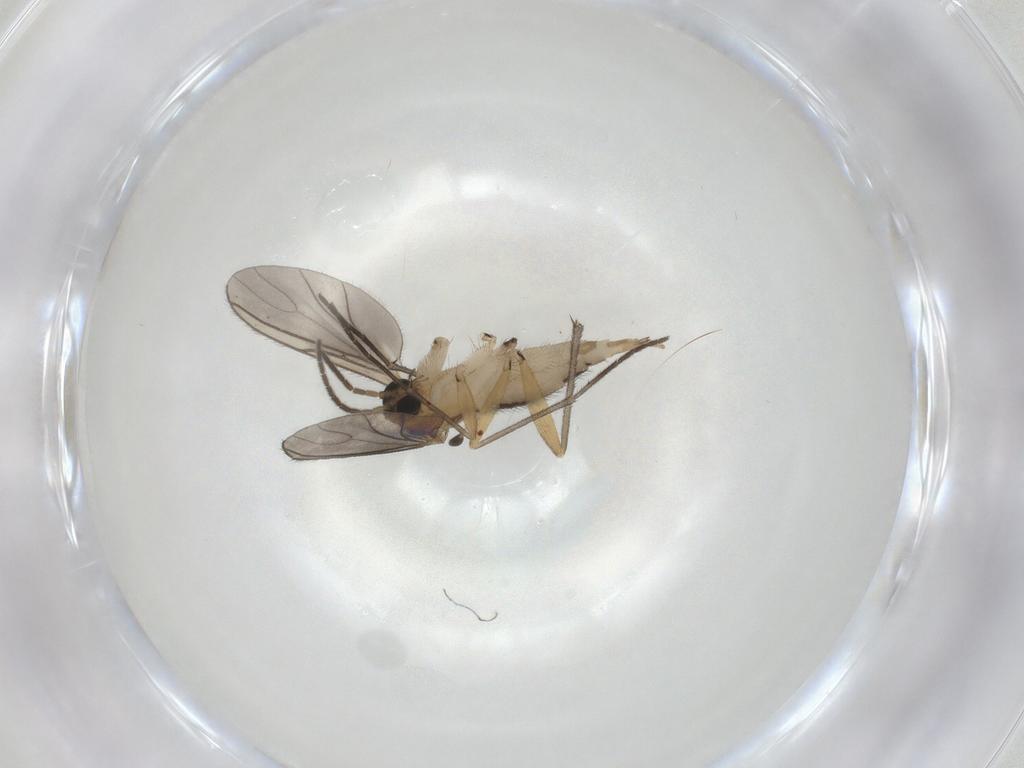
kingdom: Animalia
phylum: Arthropoda
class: Insecta
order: Diptera
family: Sciaridae
